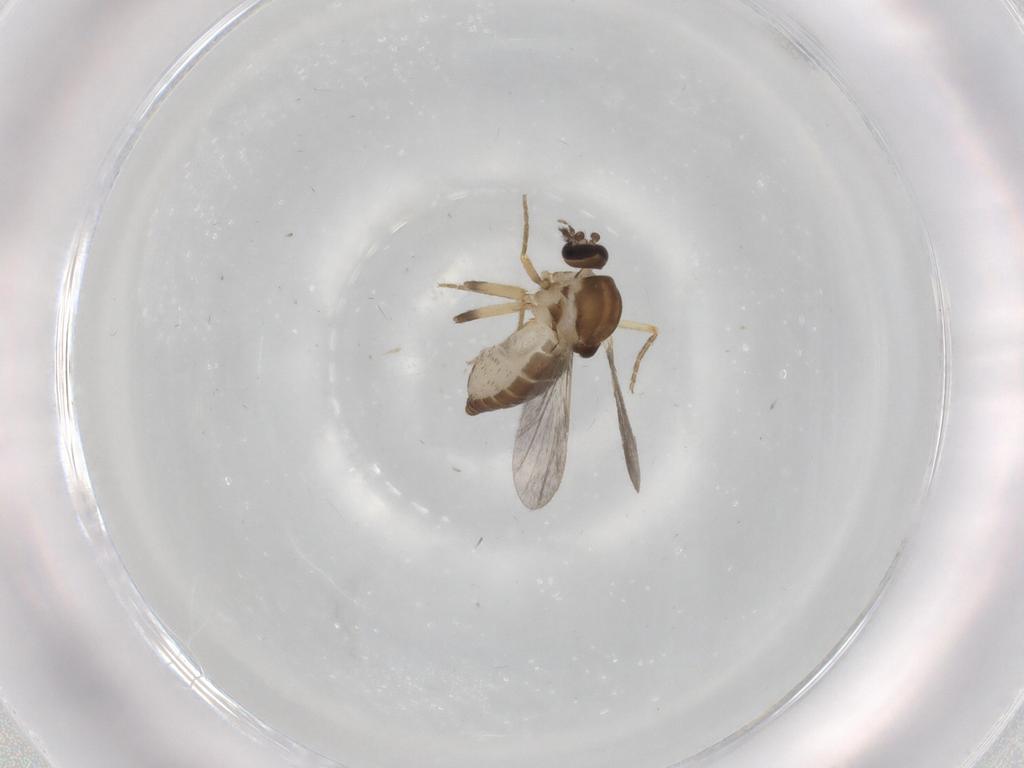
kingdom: Animalia
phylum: Arthropoda
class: Insecta
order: Diptera
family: Ceratopogonidae
